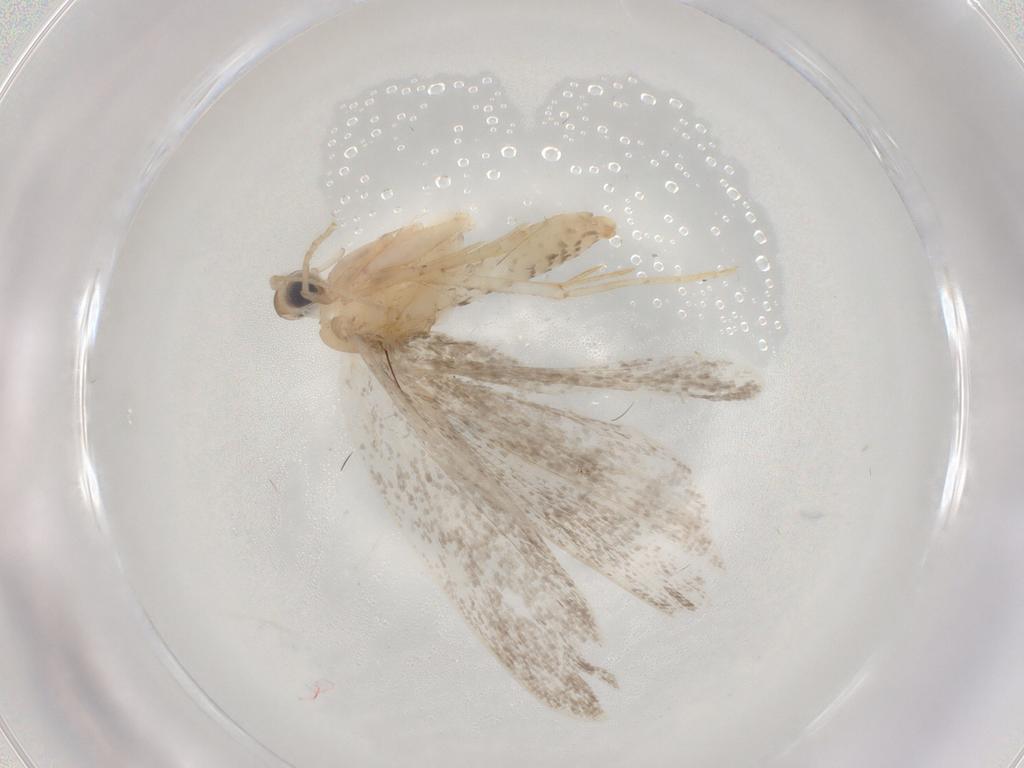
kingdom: Animalia
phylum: Arthropoda
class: Insecta
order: Lepidoptera
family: Psychidae
